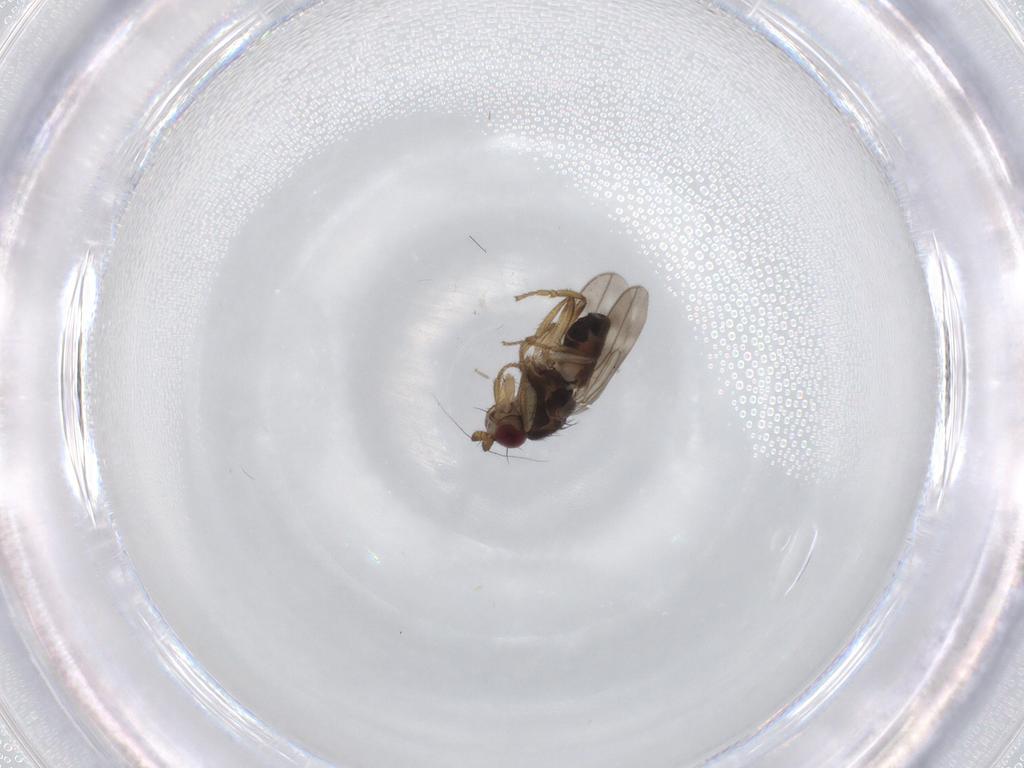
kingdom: Animalia
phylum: Arthropoda
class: Insecta
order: Diptera
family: Sphaeroceridae
